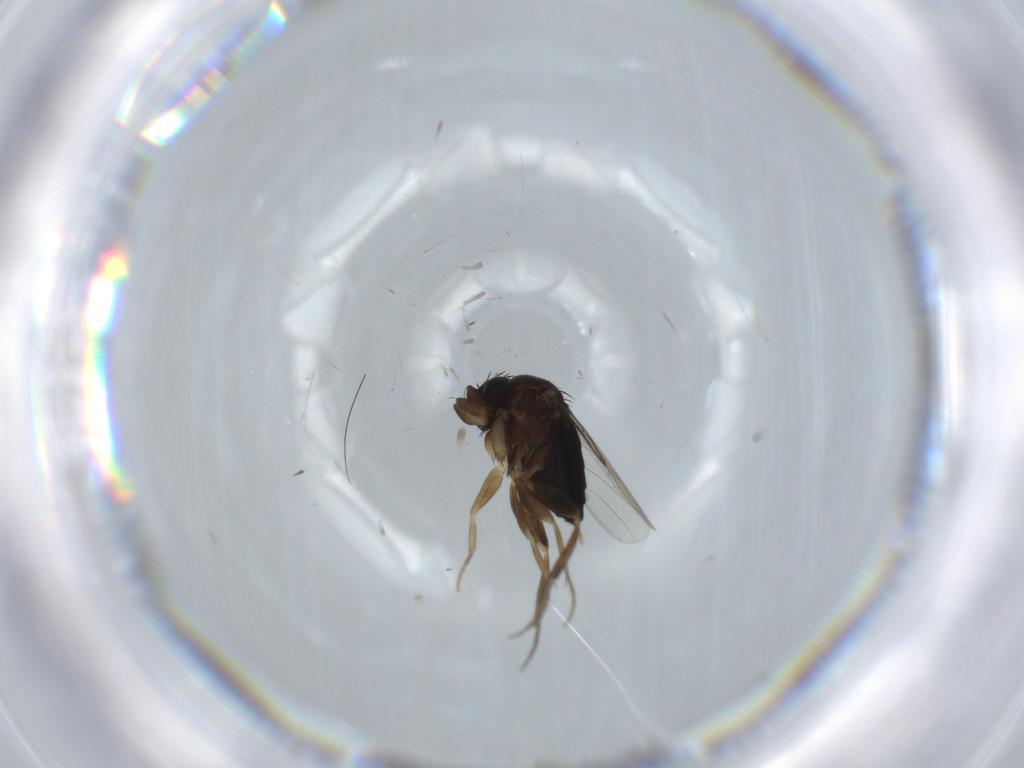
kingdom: Animalia
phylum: Arthropoda
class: Insecta
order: Diptera
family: Phoridae
